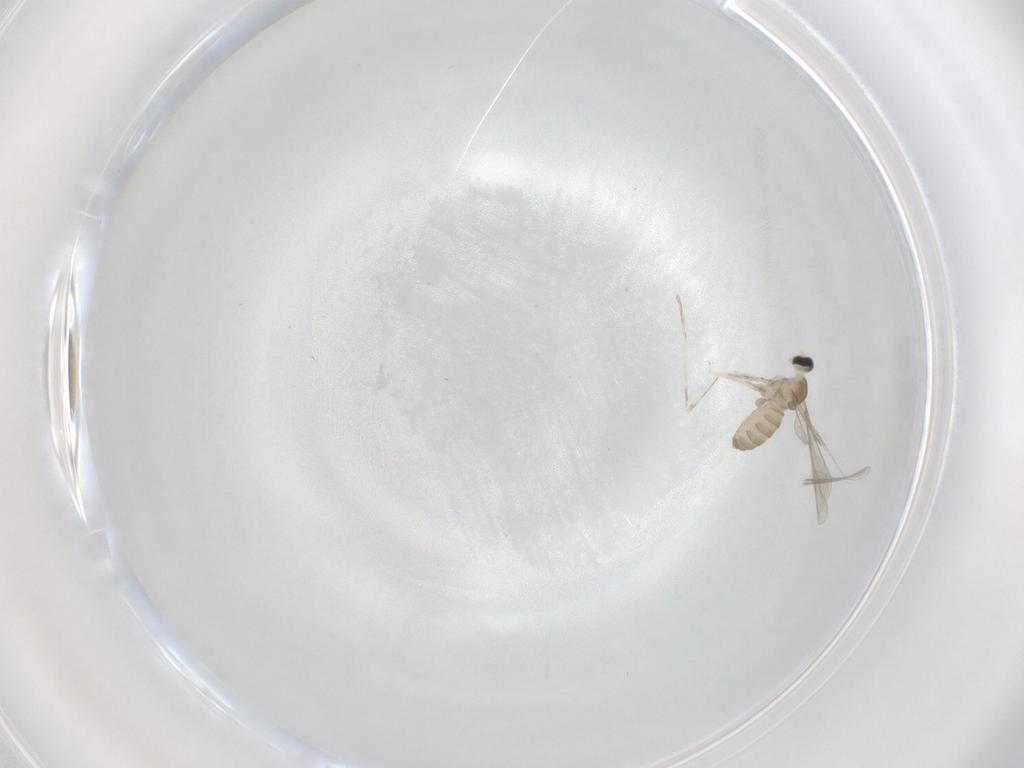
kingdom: Animalia
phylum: Arthropoda
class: Insecta
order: Diptera
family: Cecidomyiidae
